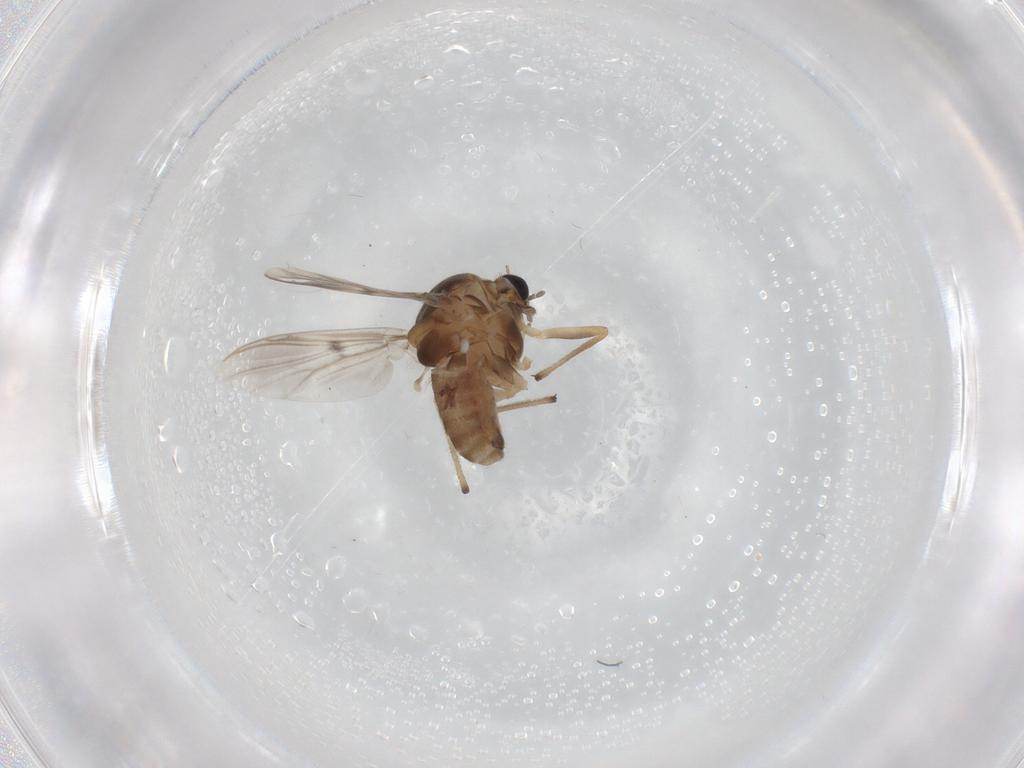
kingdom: Animalia
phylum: Arthropoda
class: Insecta
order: Diptera
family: Chironomidae
